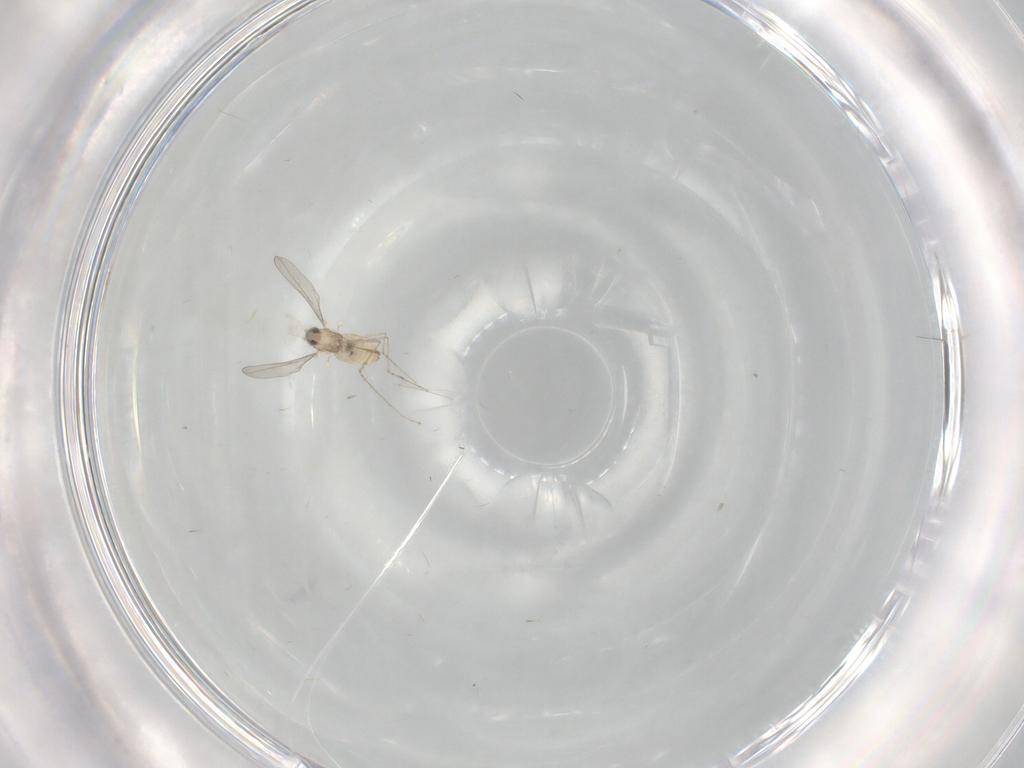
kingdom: Animalia
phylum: Arthropoda
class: Insecta
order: Diptera
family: Cecidomyiidae
